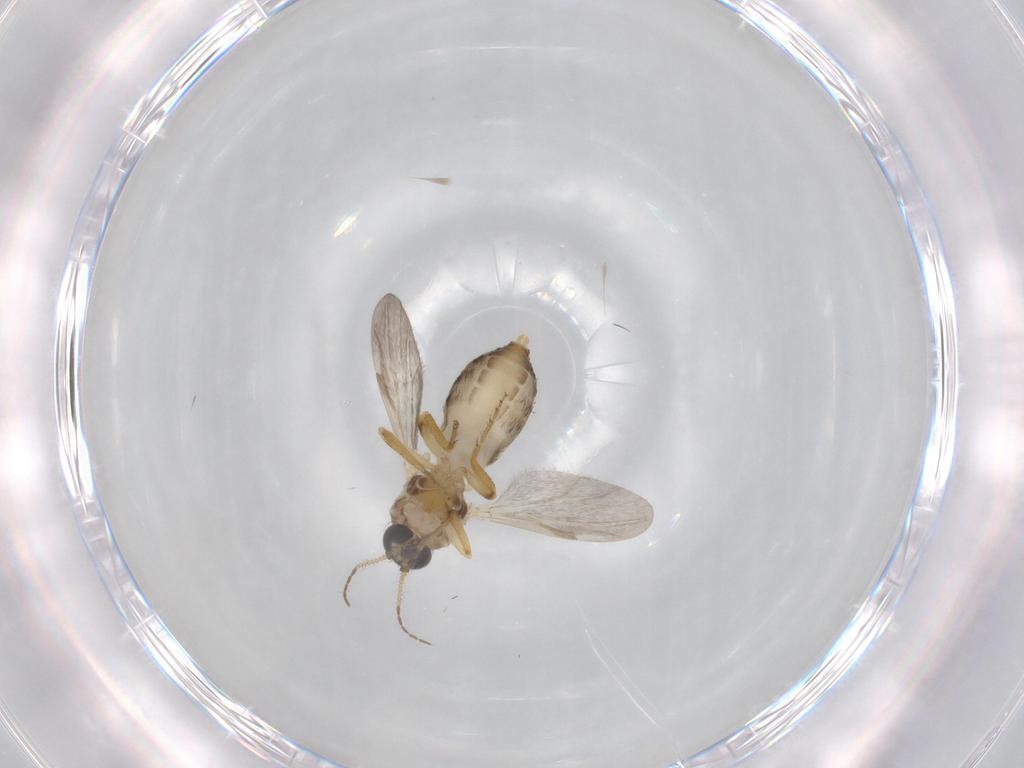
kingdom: Animalia
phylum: Arthropoda
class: Insecta
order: Diptera
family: Ceratopogonidae
